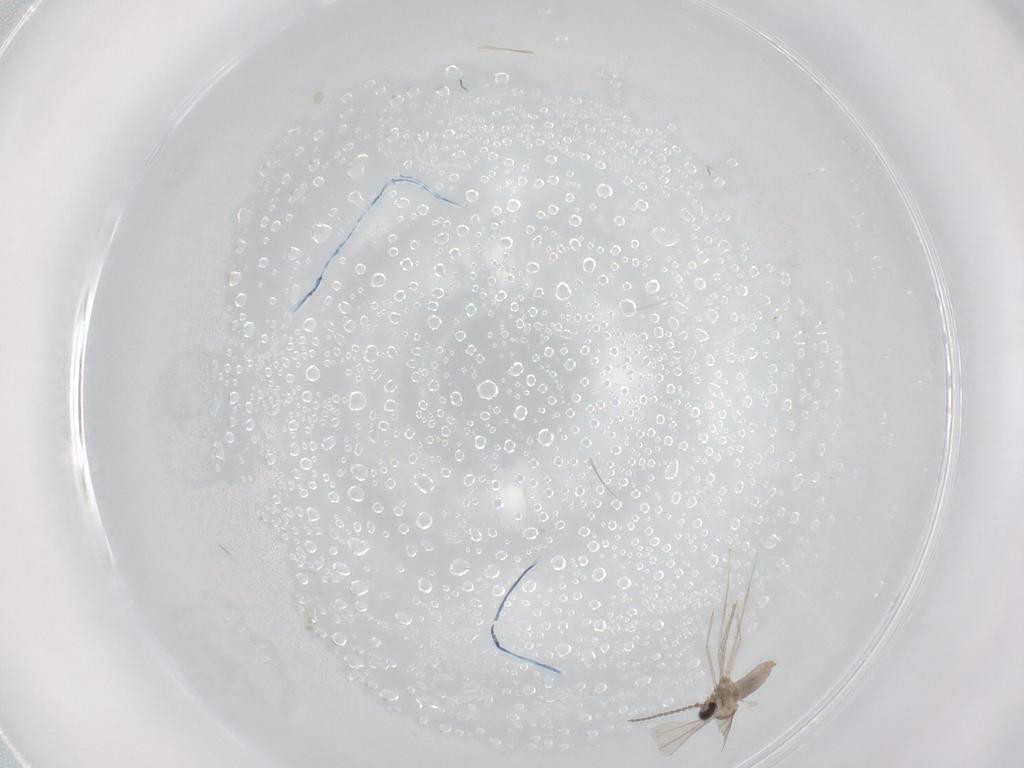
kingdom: Animalia
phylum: Arthropoda
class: Insecta
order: Diptera
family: Cecidomyiidae
